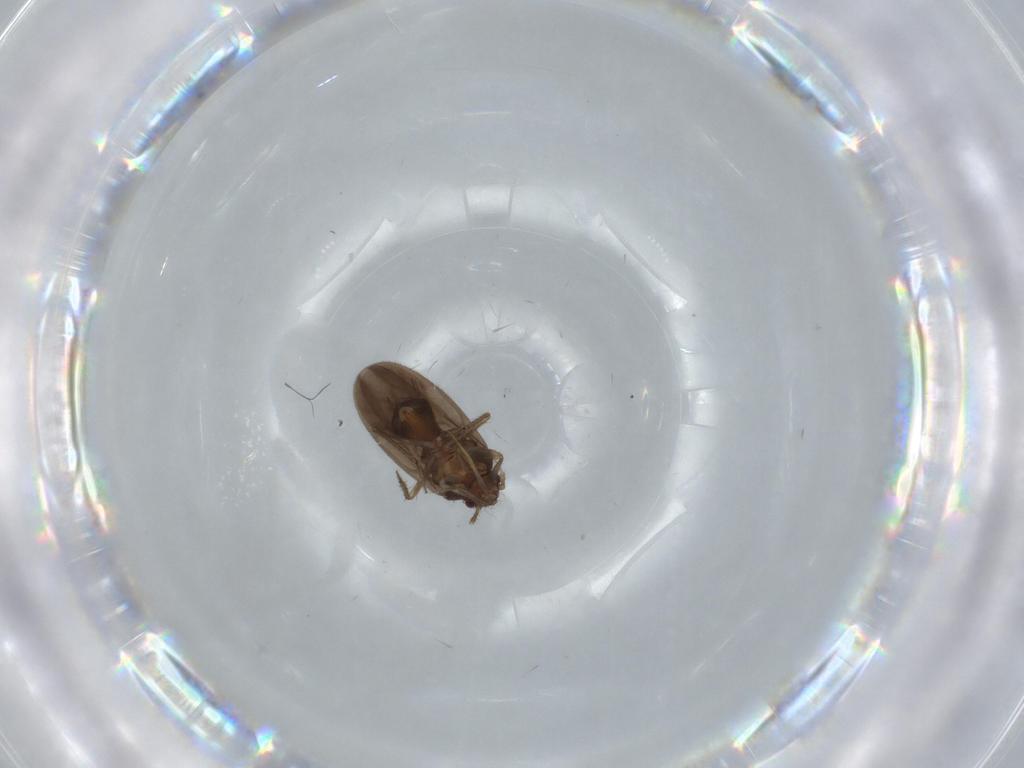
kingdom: Animalia
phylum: Arthropoda
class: Insecta
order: Hemiptera
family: Ceratocombidae
